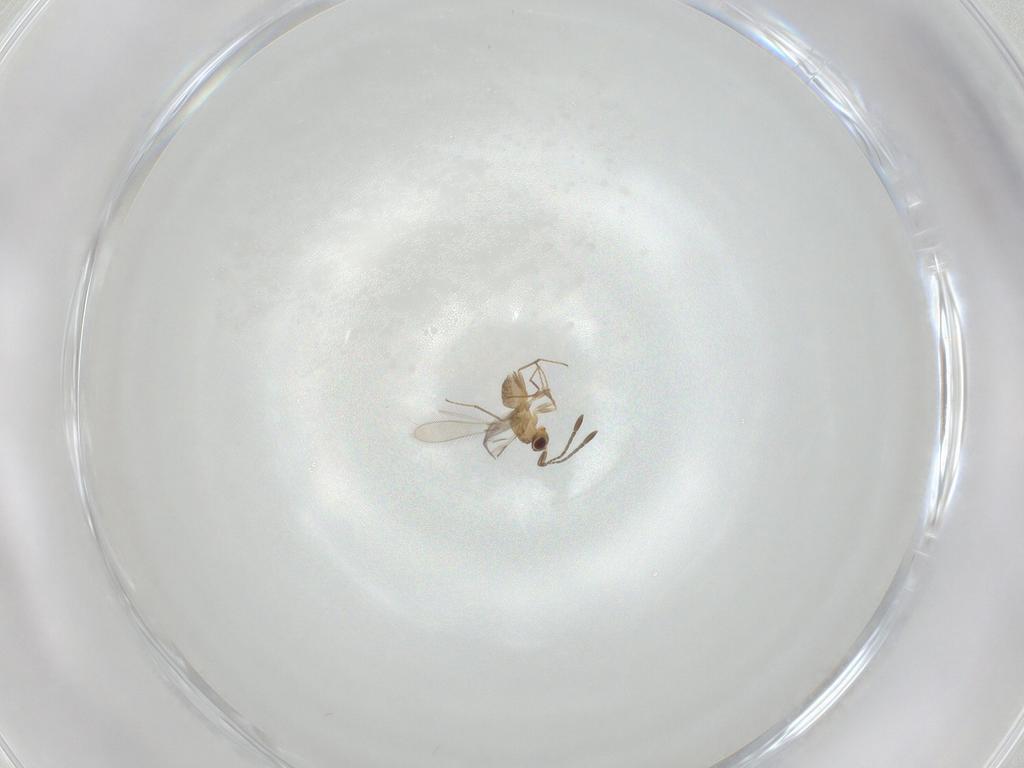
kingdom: Animalia
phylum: Arthropoda
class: Insecta
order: Hymenoptera
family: Mymaridae
